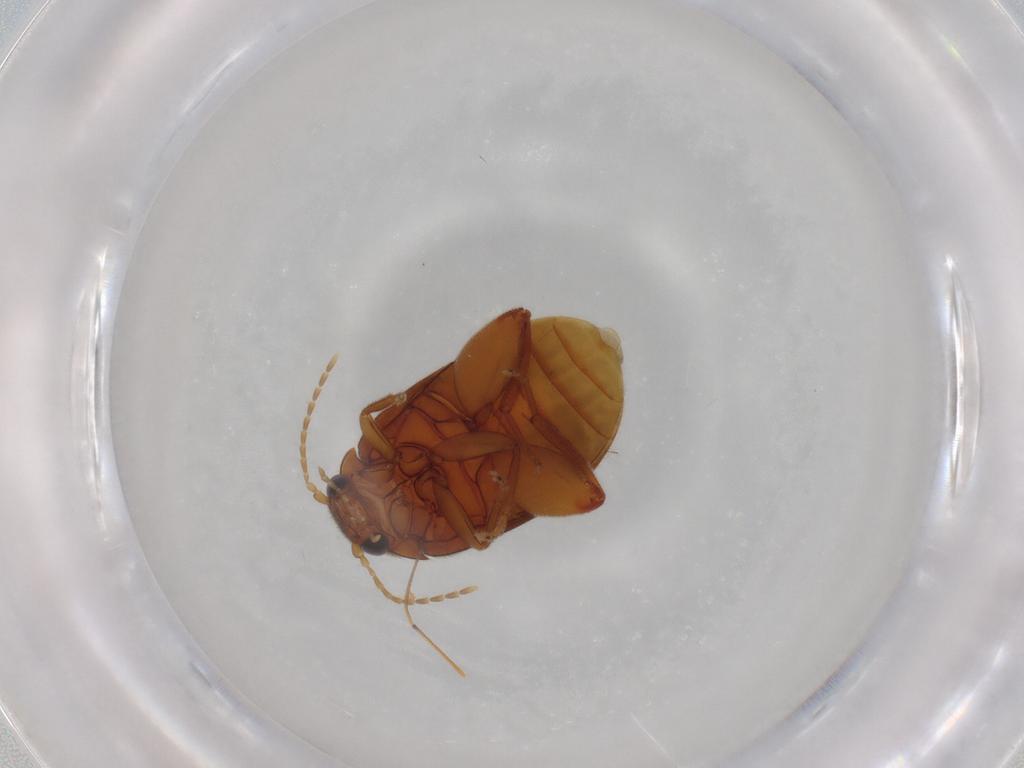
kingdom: Animalia
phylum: Arthropoda
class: Insecta
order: Coleoptera
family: Scirtidae
